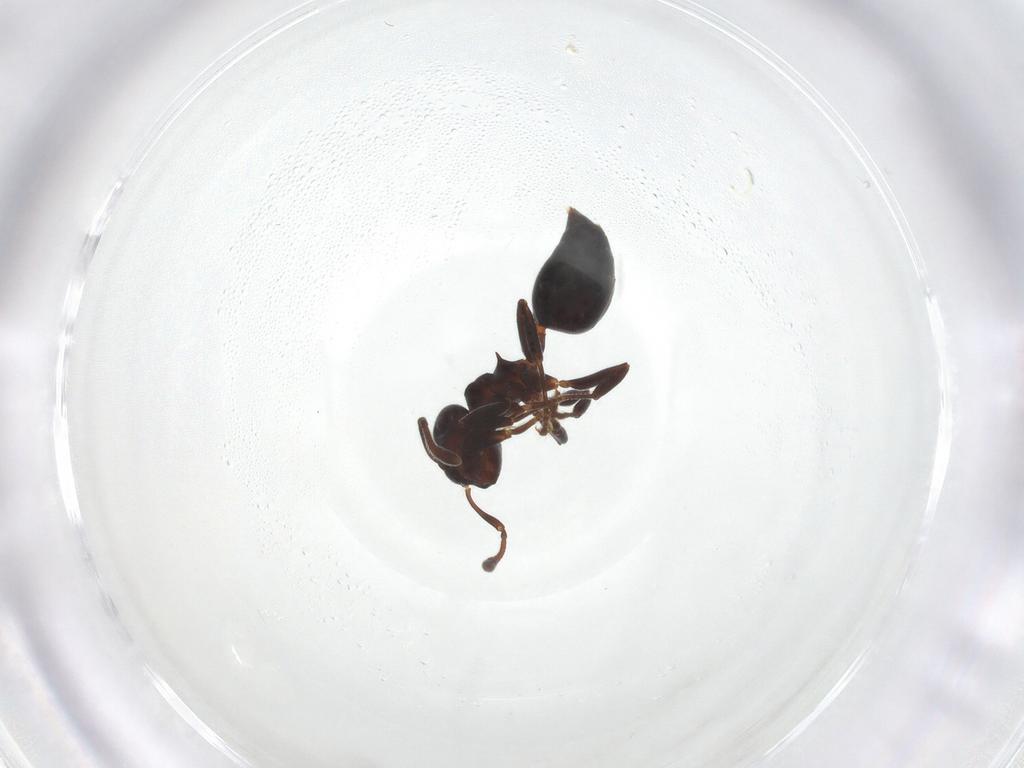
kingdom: Animalia
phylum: Arthropoda
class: Insecta
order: Hymenoptera
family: Formicidae
